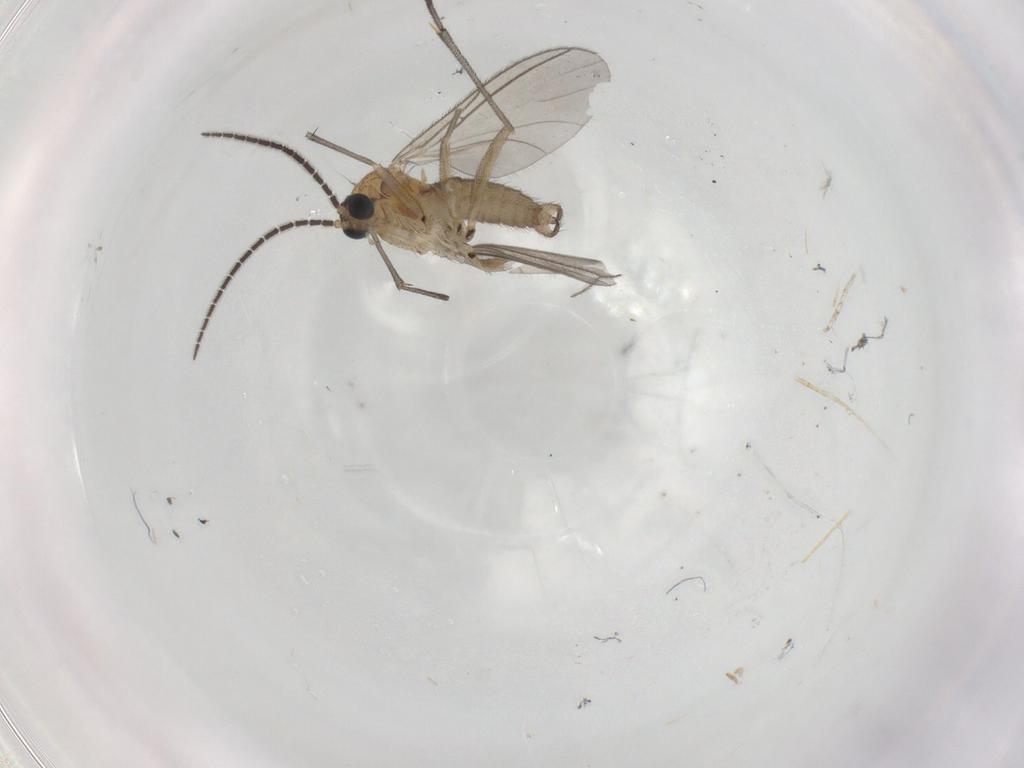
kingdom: Animalia
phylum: Arthropoda
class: Insecta
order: Diptera
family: Sciaridae
